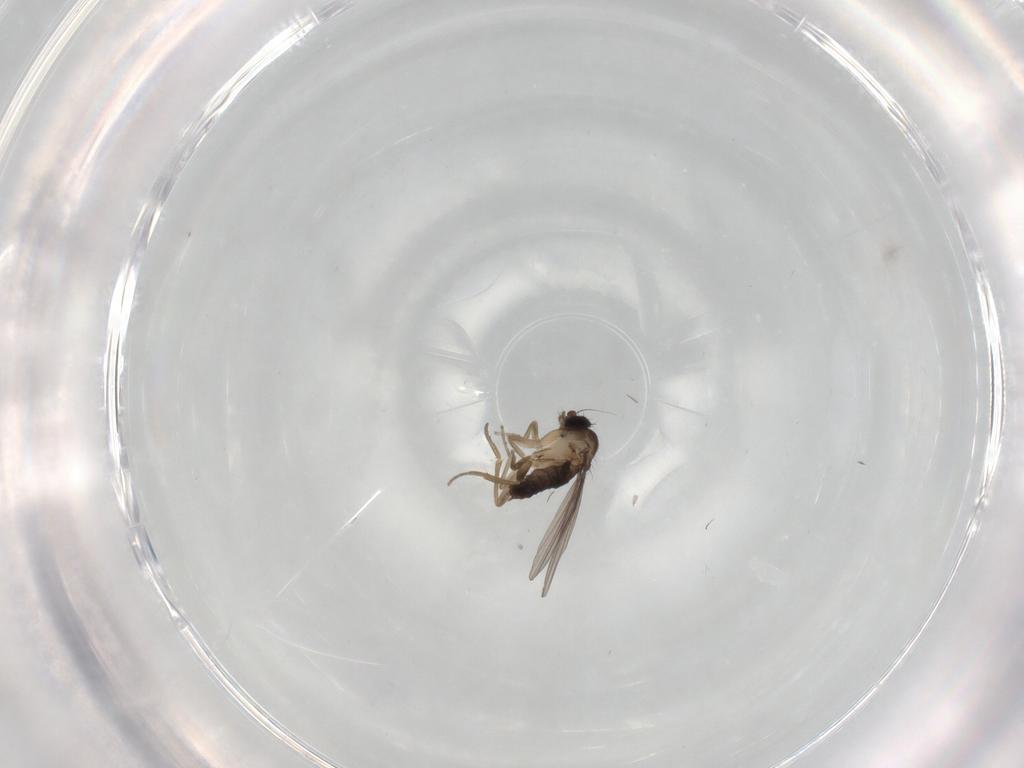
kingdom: Animalia
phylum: Arthropoda
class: Insecta
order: Diptera
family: Phoridae
